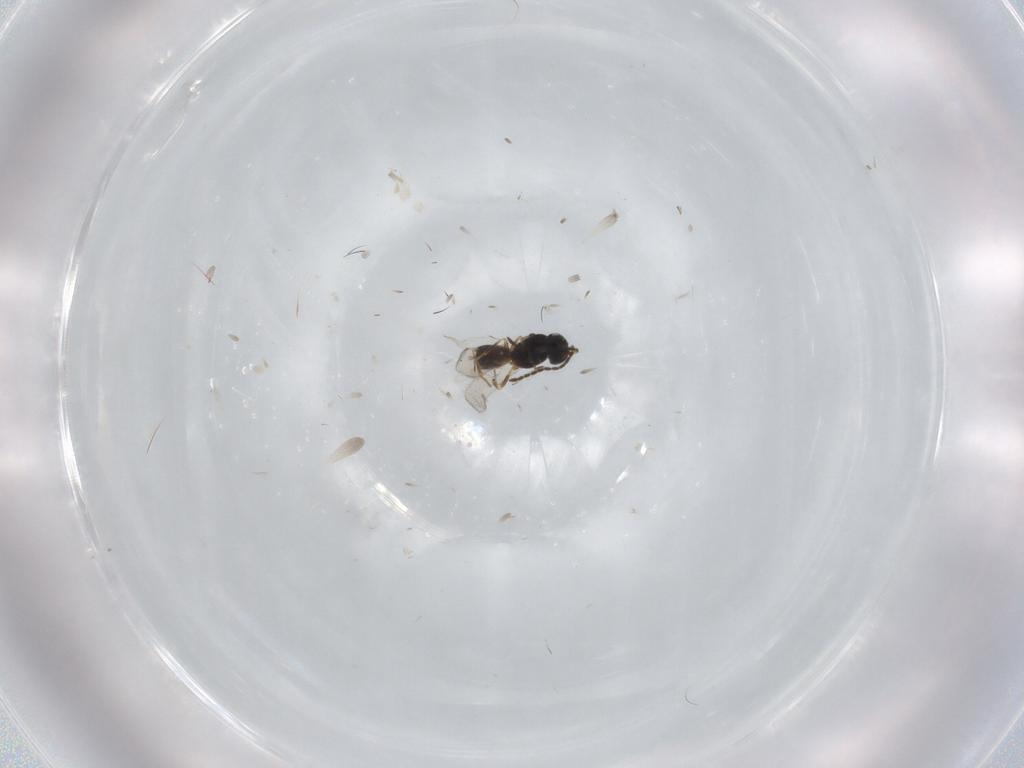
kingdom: Animalia
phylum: Arthropoda
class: Insecta
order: Hymenoptera
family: Scelionidae
